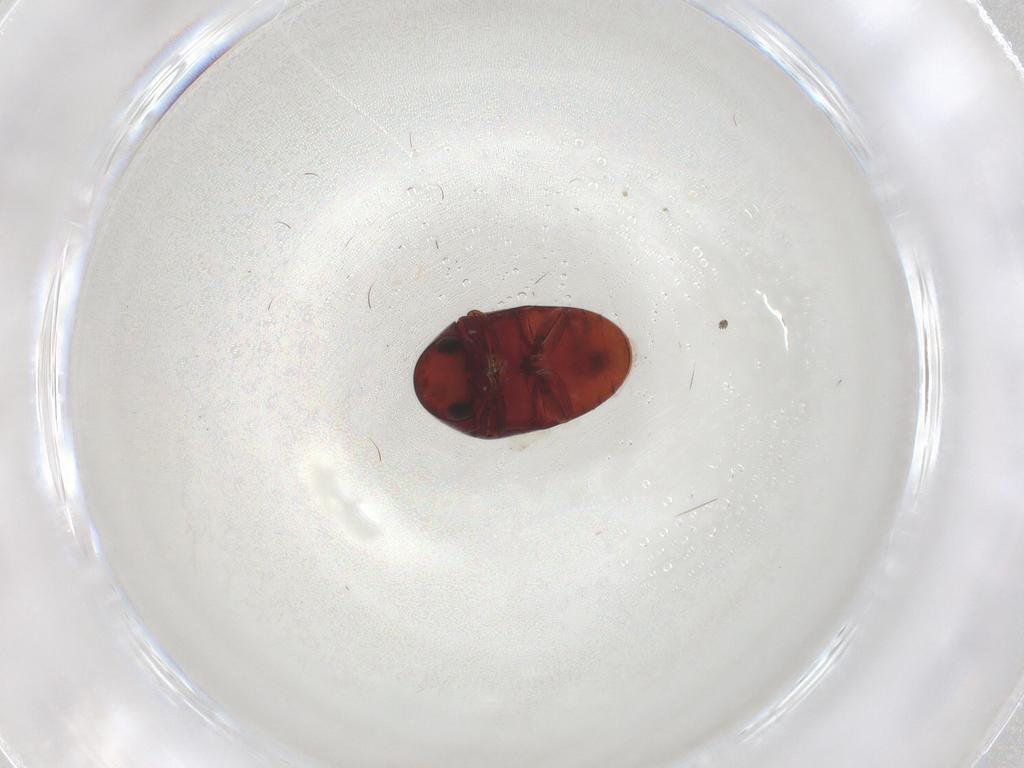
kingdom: Animalia
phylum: Arthropoda
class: Insecta
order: Coleoptera
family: Ptinidae
